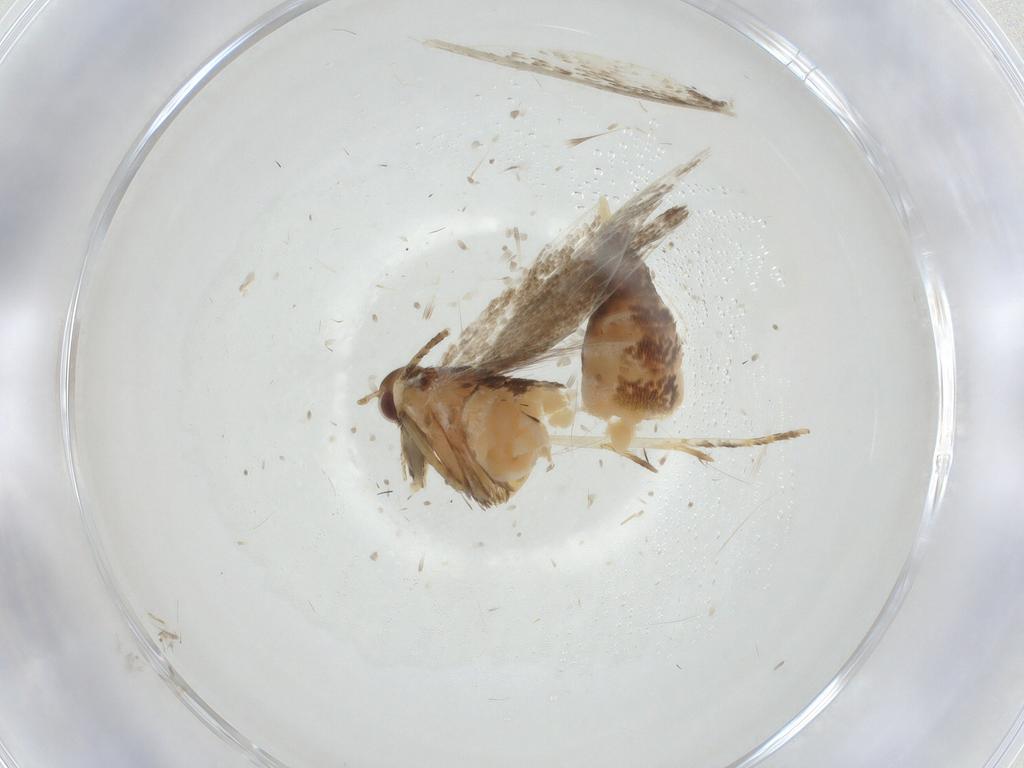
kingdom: Animalia
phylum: Arthropoda
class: Insecta
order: Lepidoptera
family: Oecophoridae
